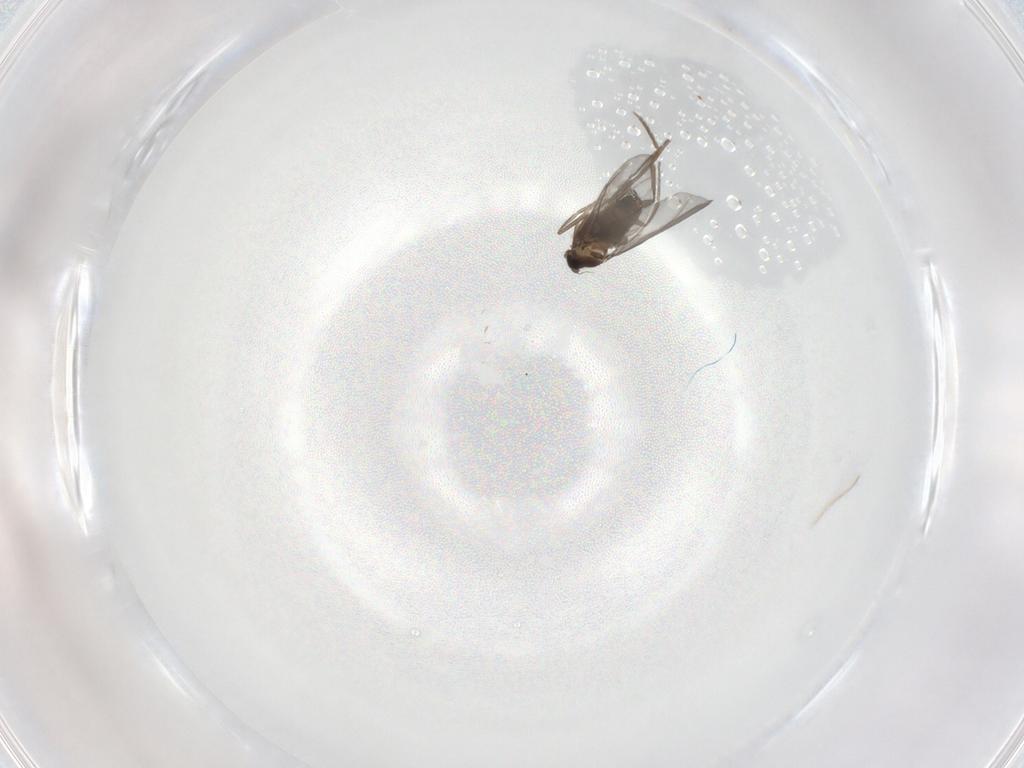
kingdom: Animalia
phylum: Arthropoda
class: Insecta
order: Diptera
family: Phoridae
